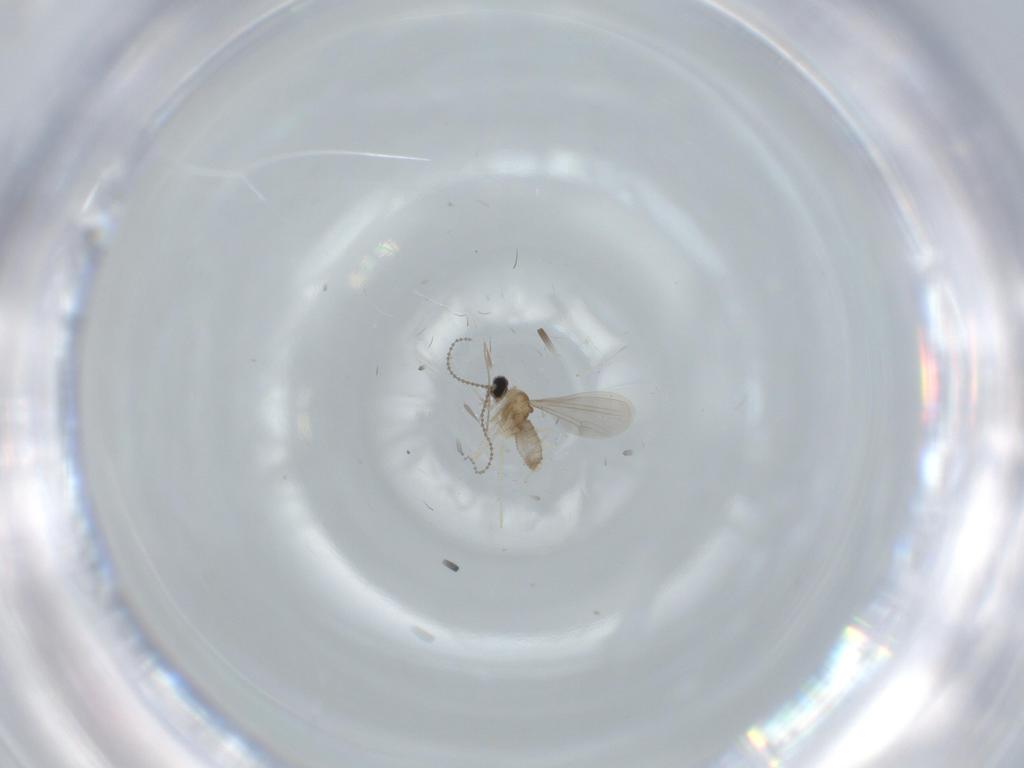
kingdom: Animalia
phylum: Arthropoda
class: Insecta
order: Diptera
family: Cecidomyiidae
